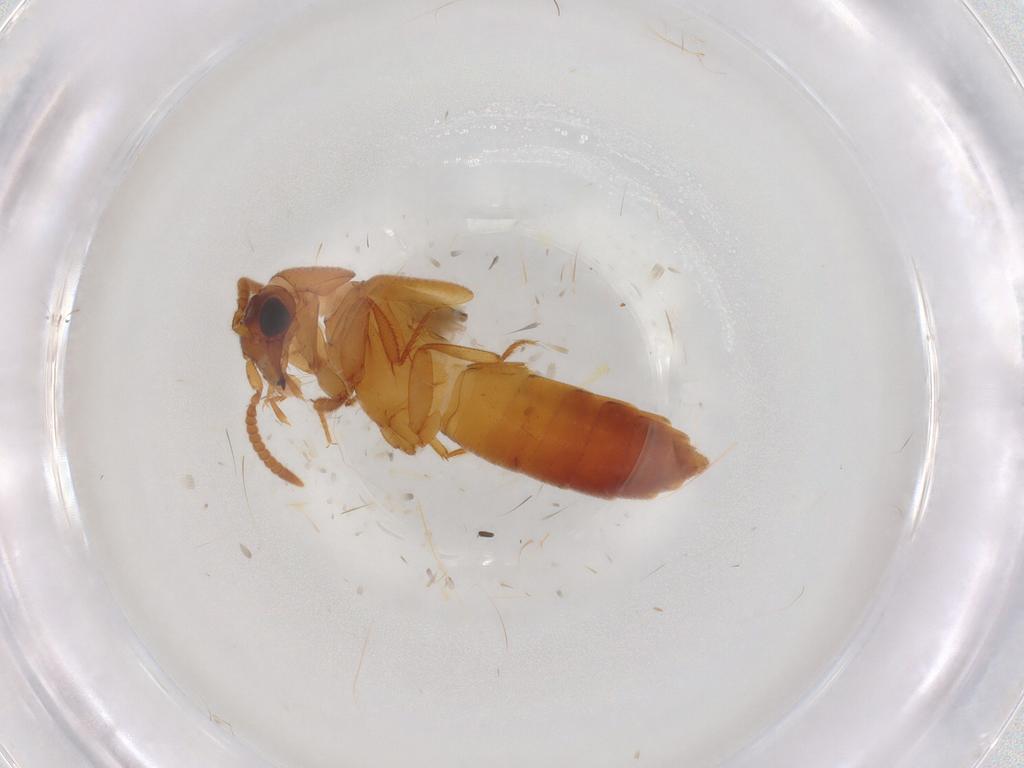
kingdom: Animalia
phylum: Arthropoda
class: Insecta
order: Coleoptera
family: Staphylinidae
